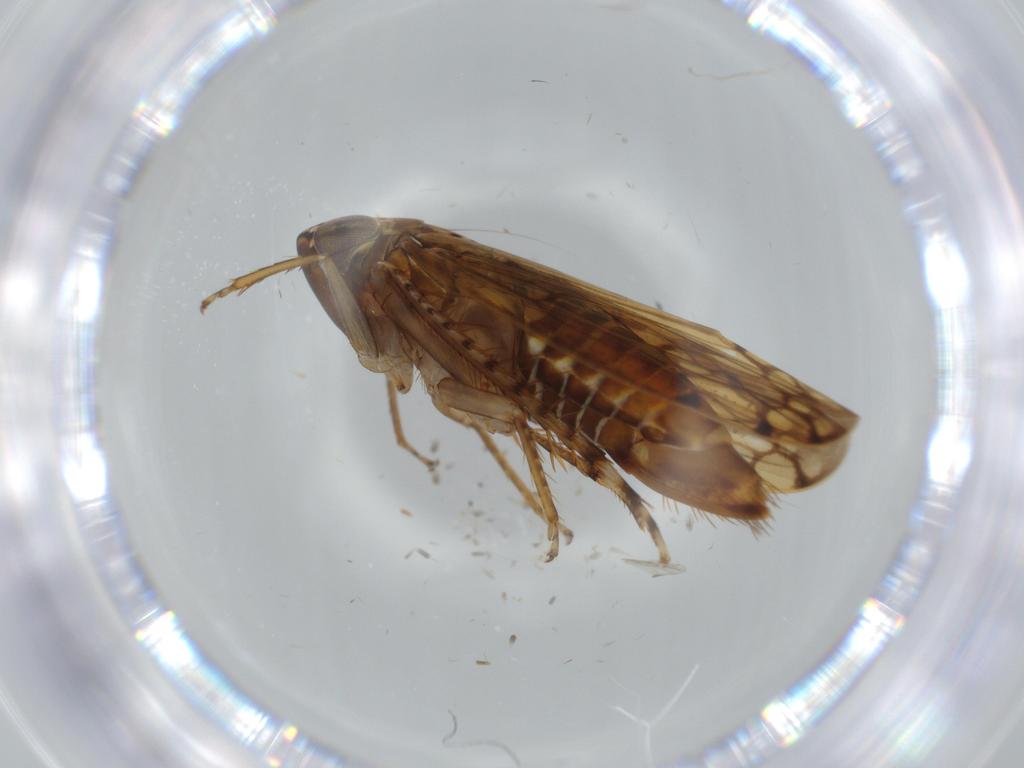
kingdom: Animalia
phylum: Arthropoda
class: Insecta
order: Hemiptera
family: Cicadellidae
